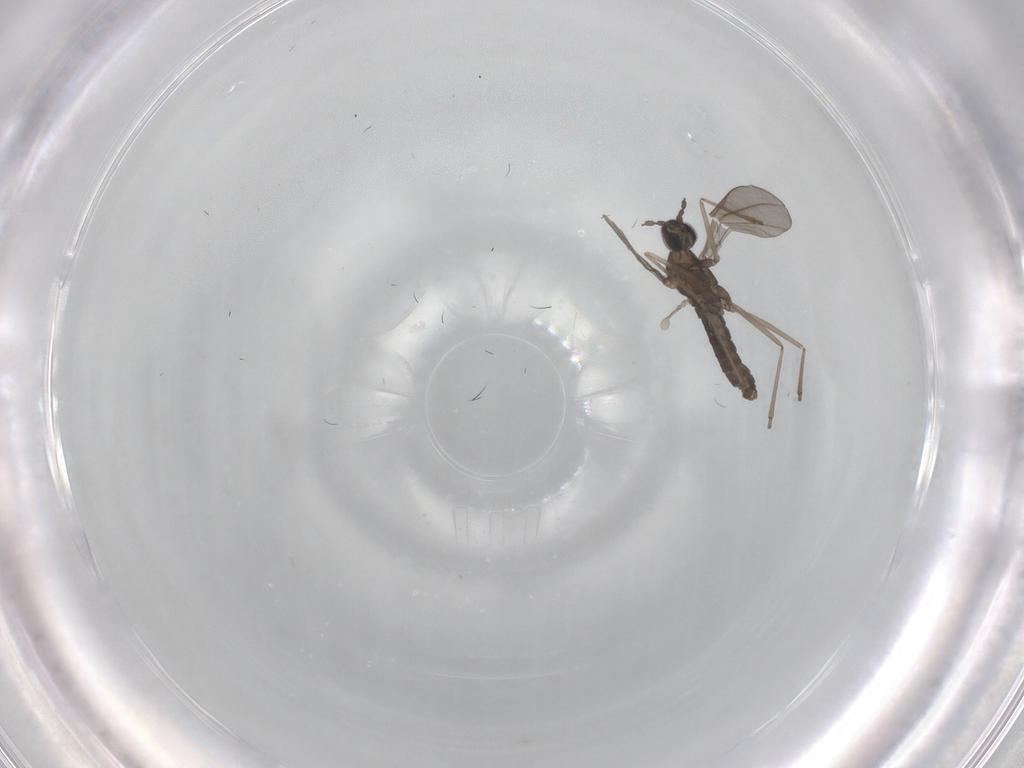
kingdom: Animalia
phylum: Arthropoda
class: Insecta
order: Diptera
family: Cecidomyiidae
